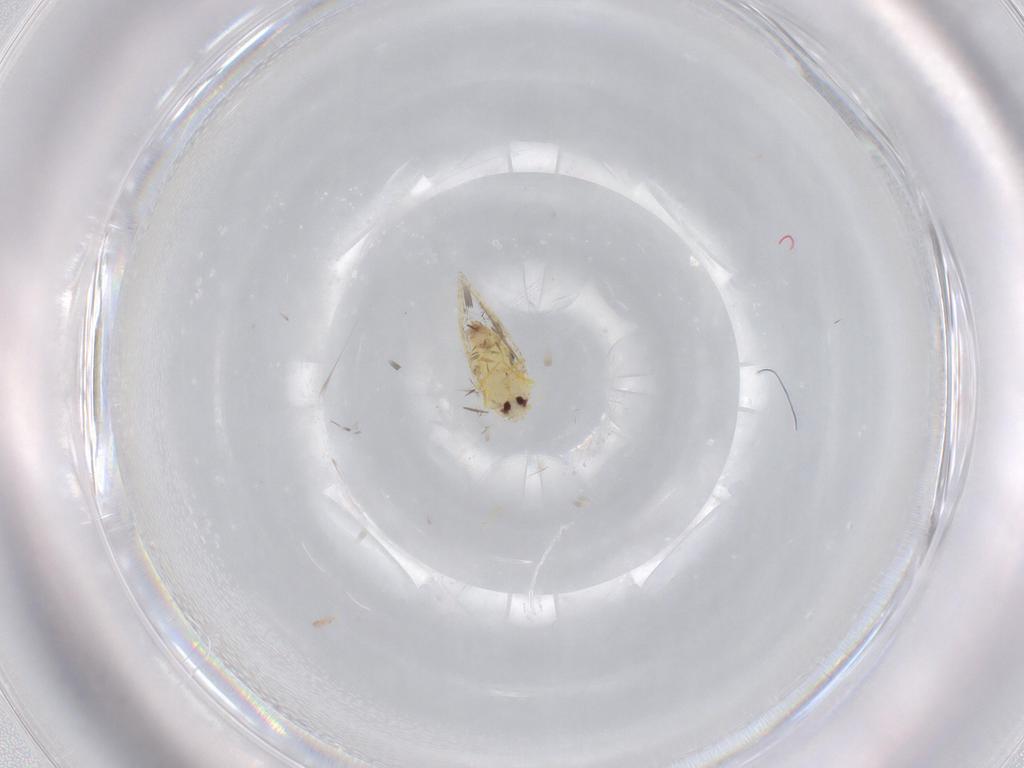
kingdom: Animalia
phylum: Arthropoda
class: Insecta
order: Hemiptera
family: Aleyrodidae
